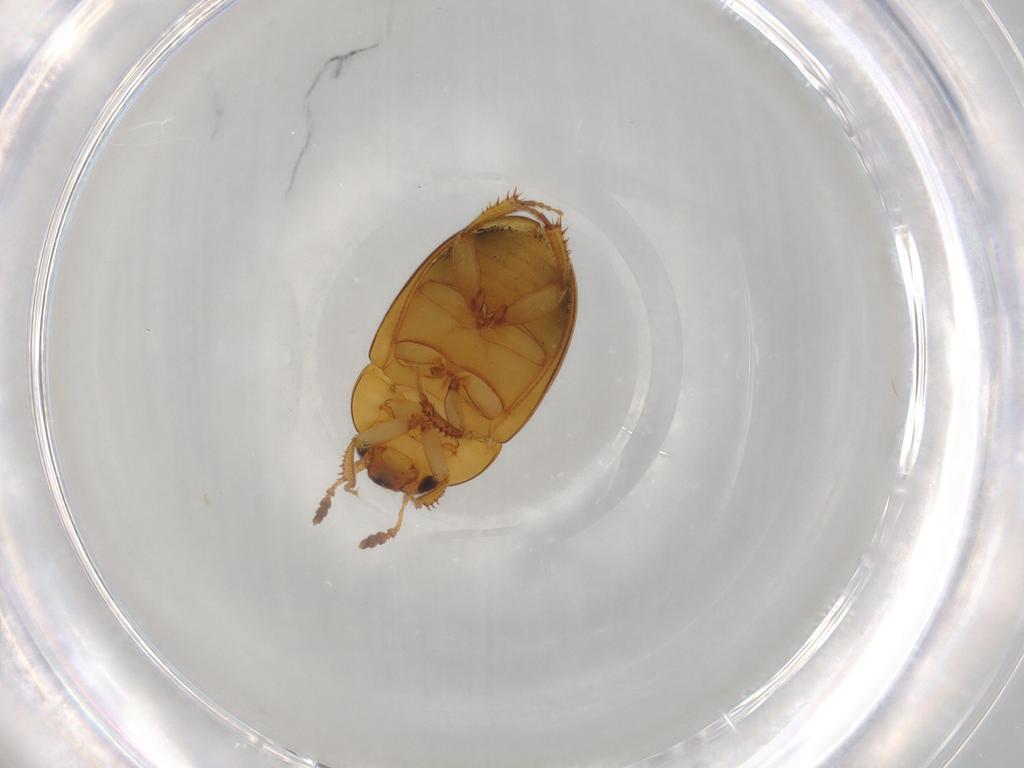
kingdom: Animalia
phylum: Arthropoda
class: Insecta
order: Coleoptera
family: Leiodidae
